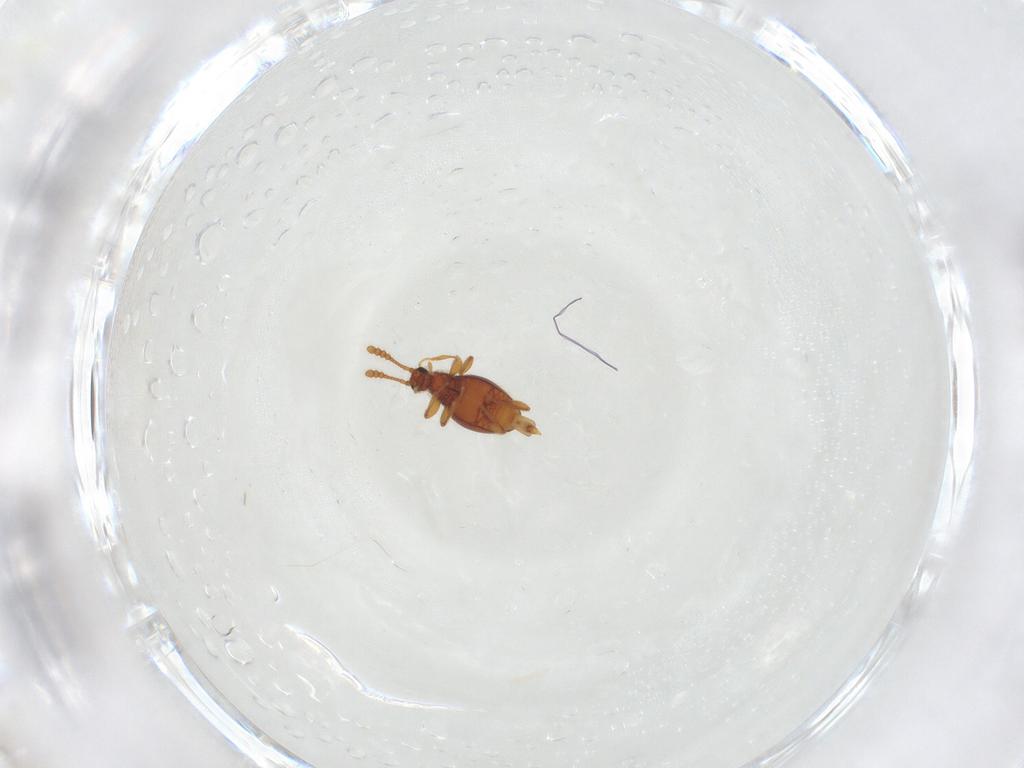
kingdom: Animalia
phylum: Arthropoda
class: Insecta
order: Coleoptera
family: Staphylinidae
